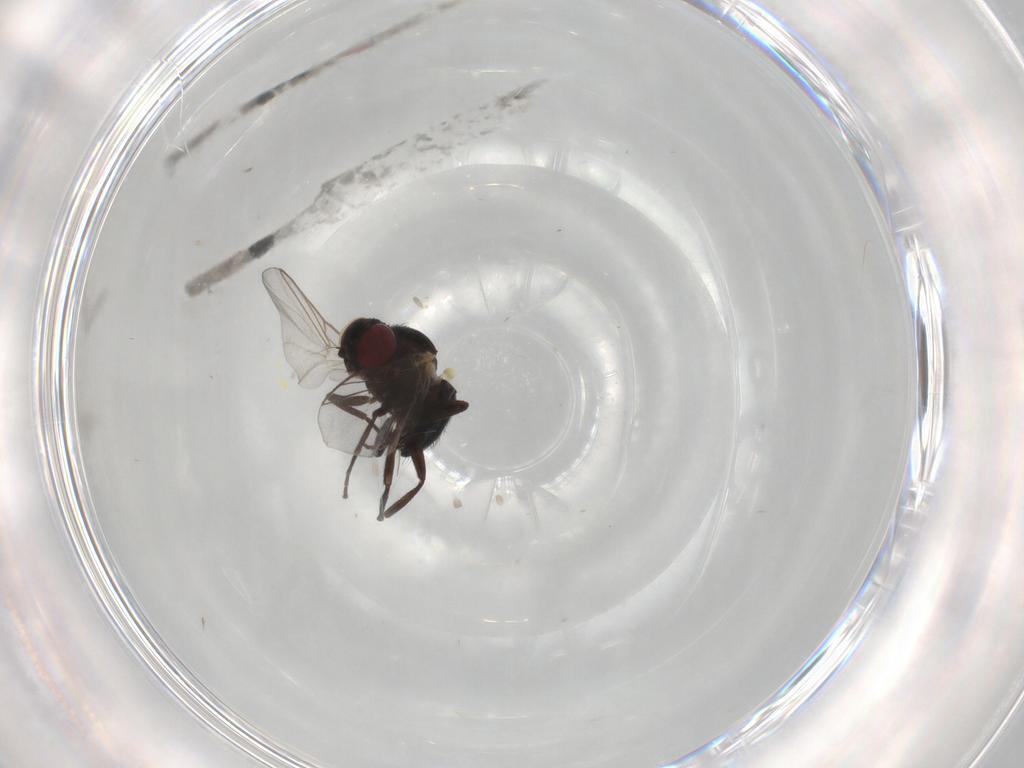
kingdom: Animalia
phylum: Arthropoda
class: Insecta
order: Diptera
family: Agromyzidae
